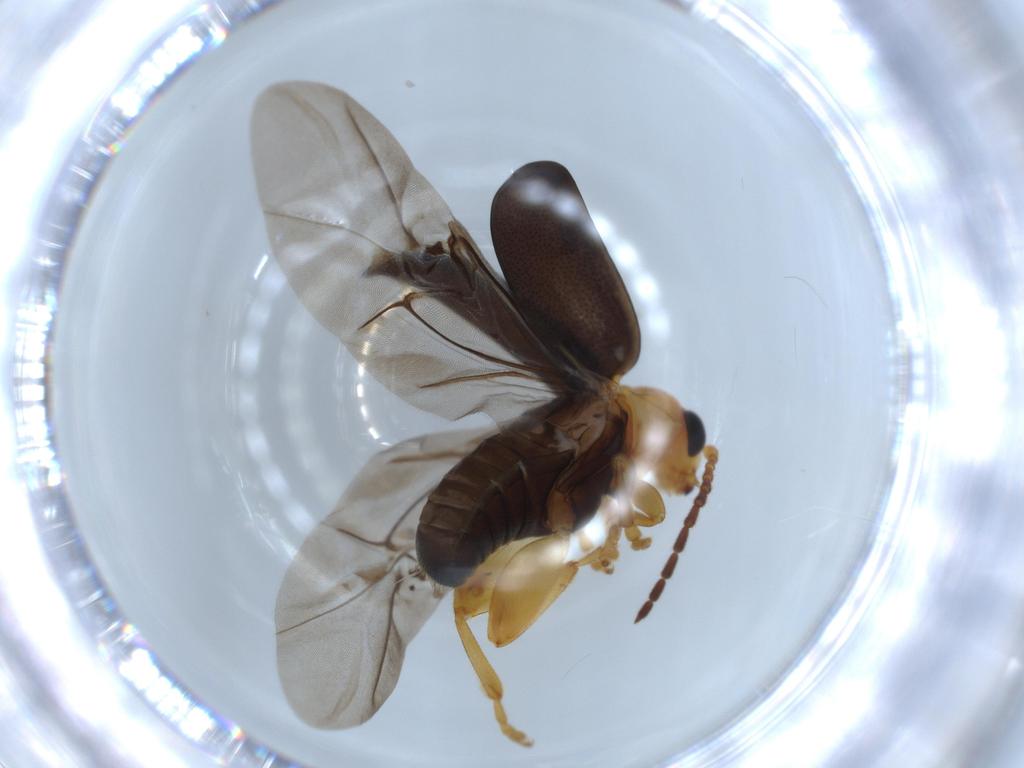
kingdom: Animalia
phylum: Arthropoda
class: Insecta
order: Coleoptera
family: Chrysomelidae
